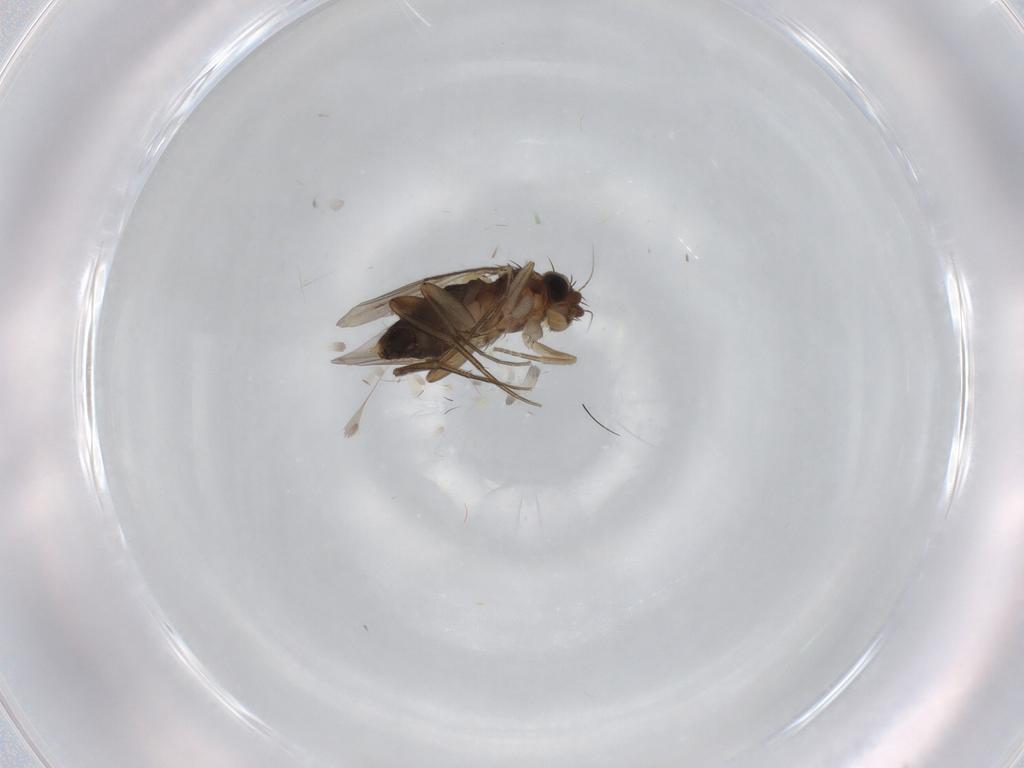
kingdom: Animalia
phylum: Arthropoda
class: Insecta
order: Diptera
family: Phoridae
